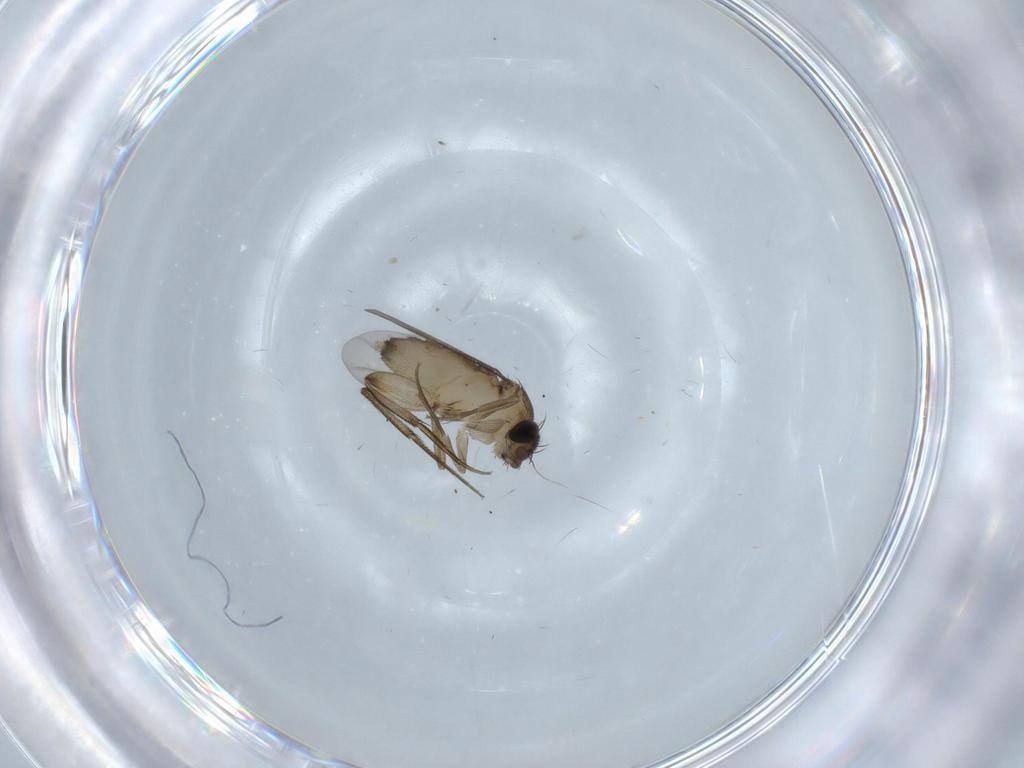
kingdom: Animalia
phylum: Arthropoda
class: Insecta
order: Diptera
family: Phoridae
